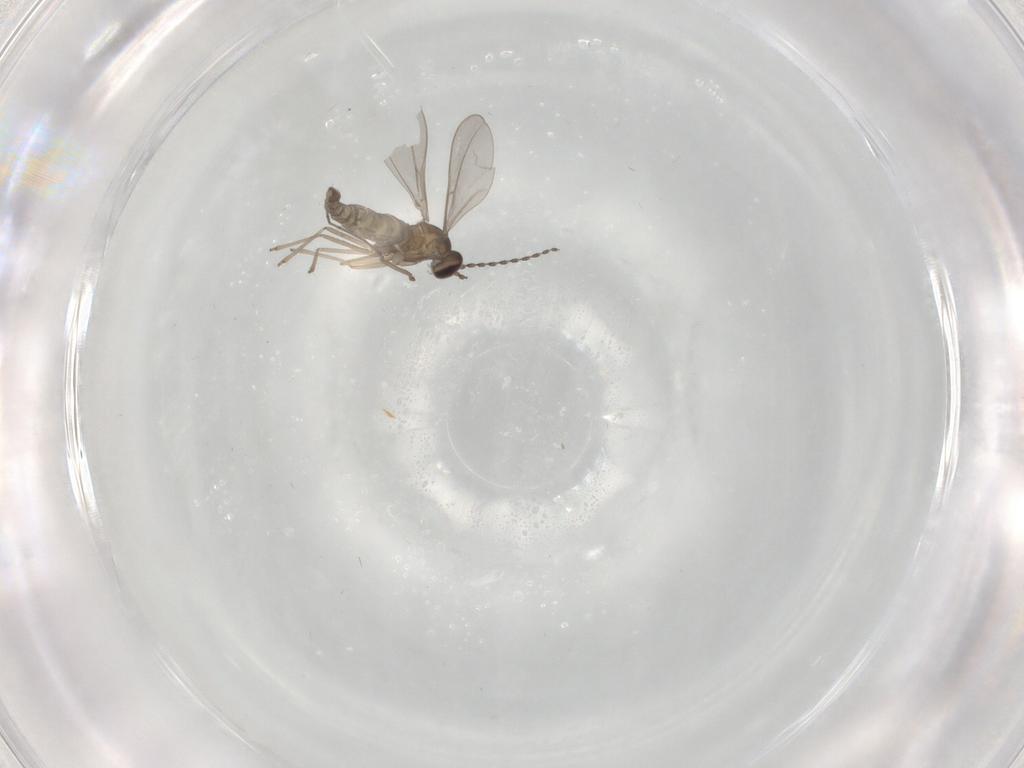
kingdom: Animalia
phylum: Arthropoda
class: Insecta
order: Diptera
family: Cecidomyiidae
